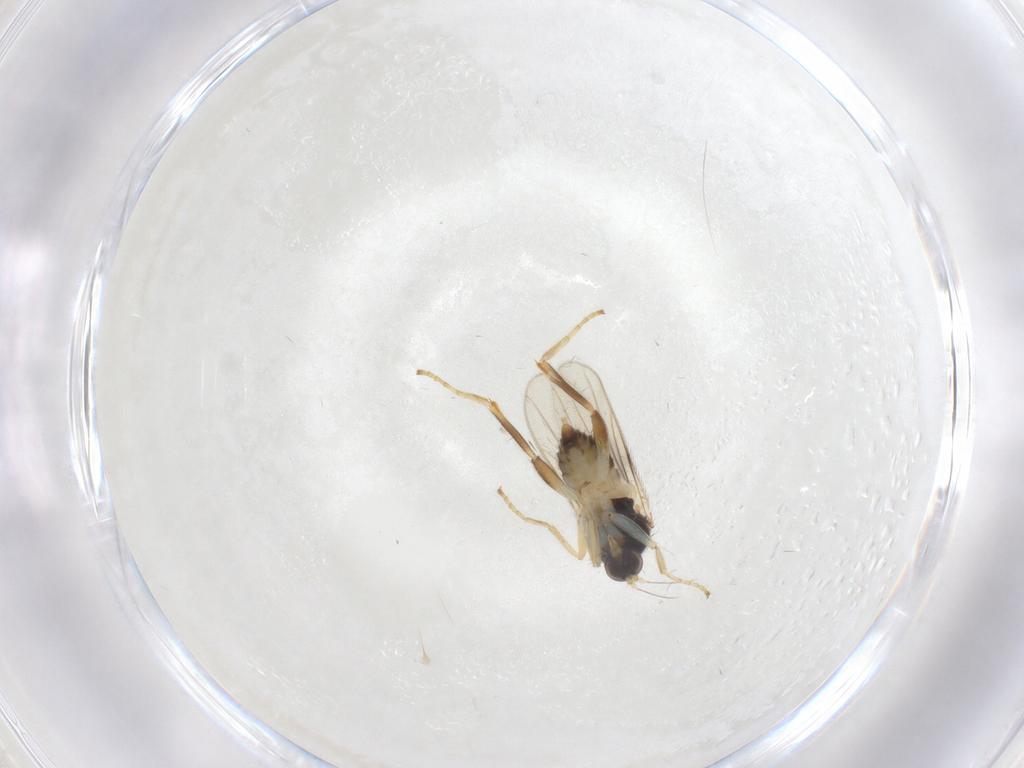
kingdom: Animalia
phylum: Arthropoda
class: Insecta
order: Diptera
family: Hybotidae
